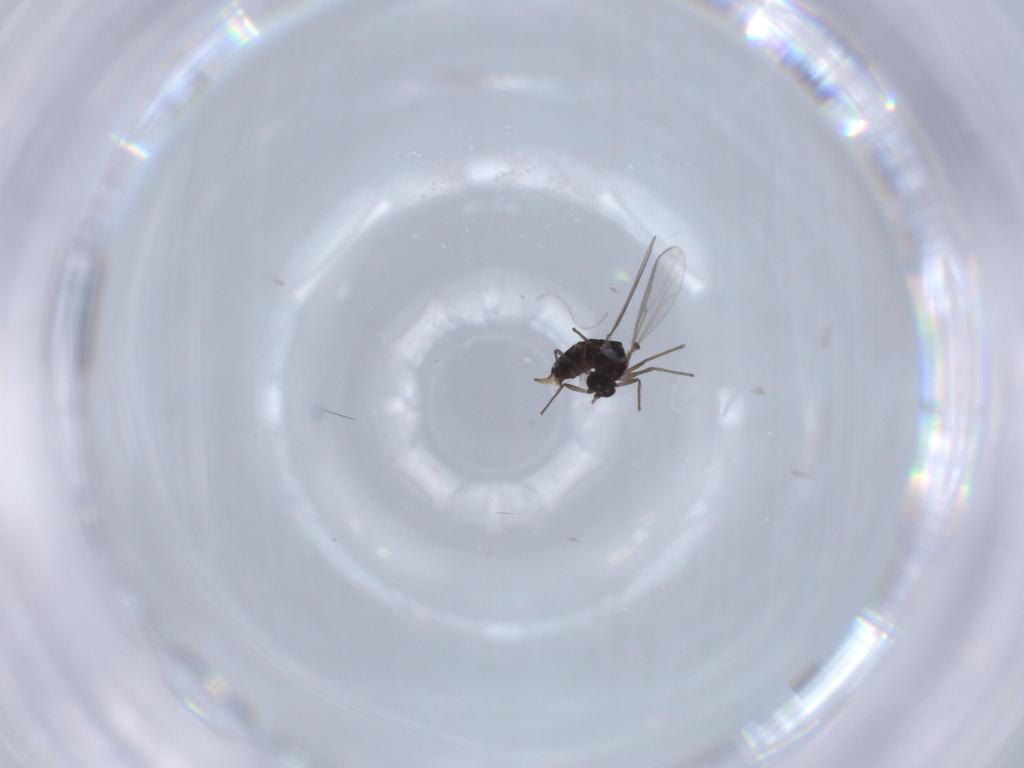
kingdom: Animalia
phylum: Arthropoda
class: Insecta
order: Diptera
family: Chironomidae
